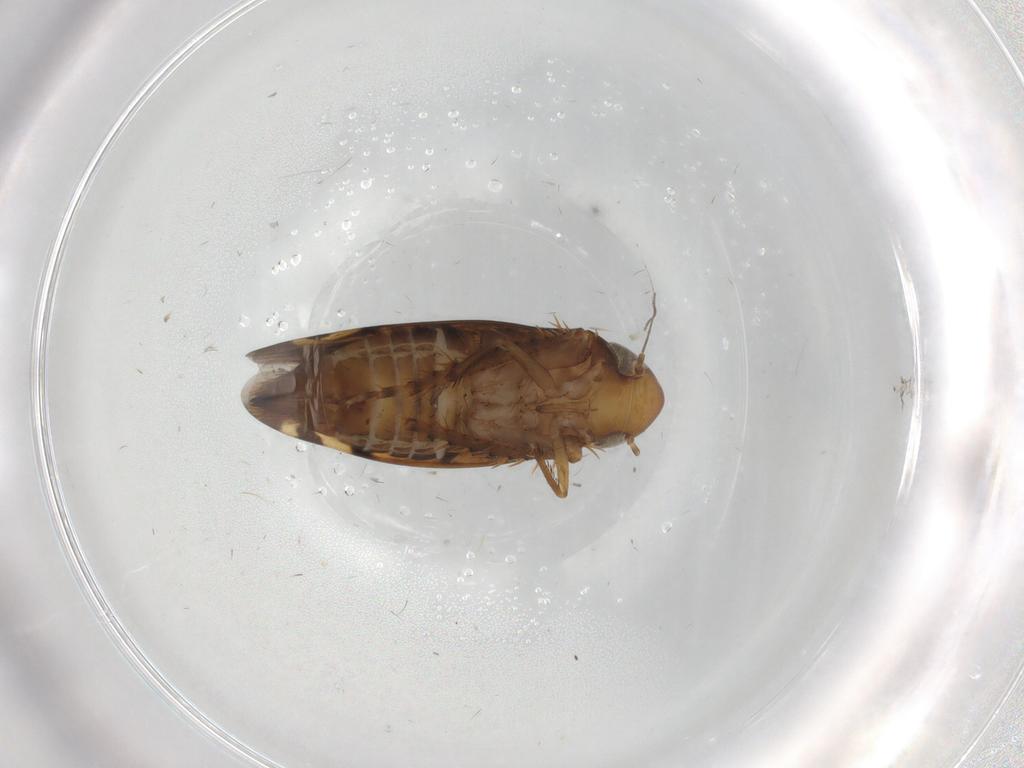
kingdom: Animalia
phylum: Arthropoda
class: Insecta
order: Hemiptera
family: Cicadellidae
